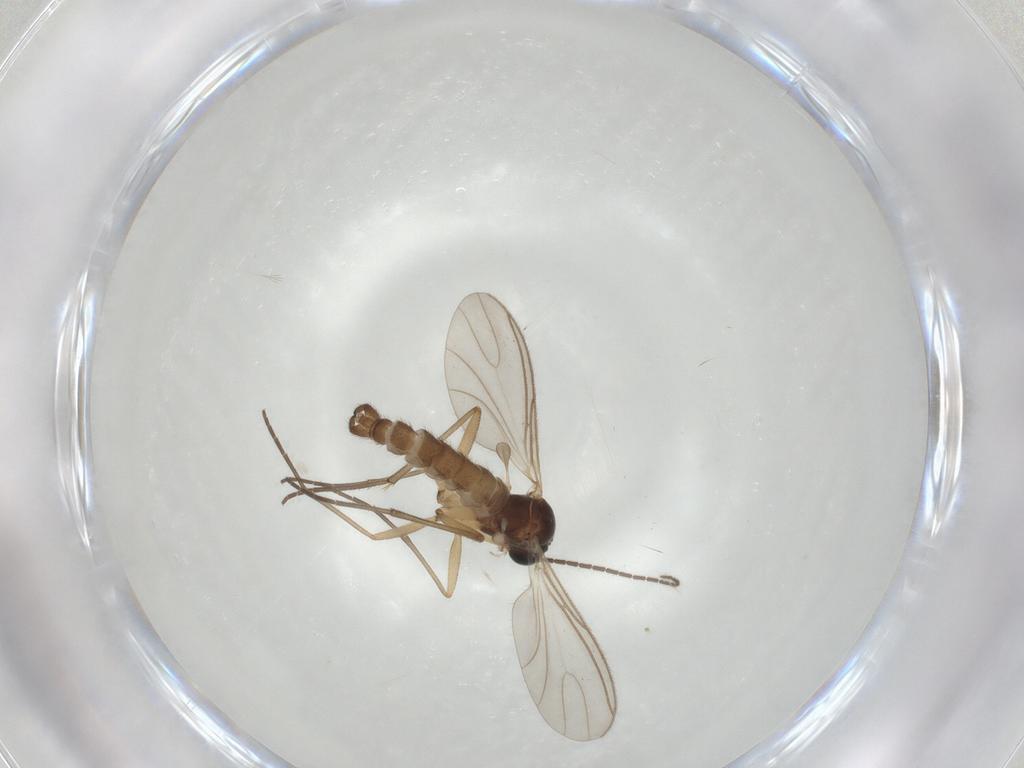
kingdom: Animalia
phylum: Arthropoda
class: Insecta
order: Diptera
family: Sciaridae
